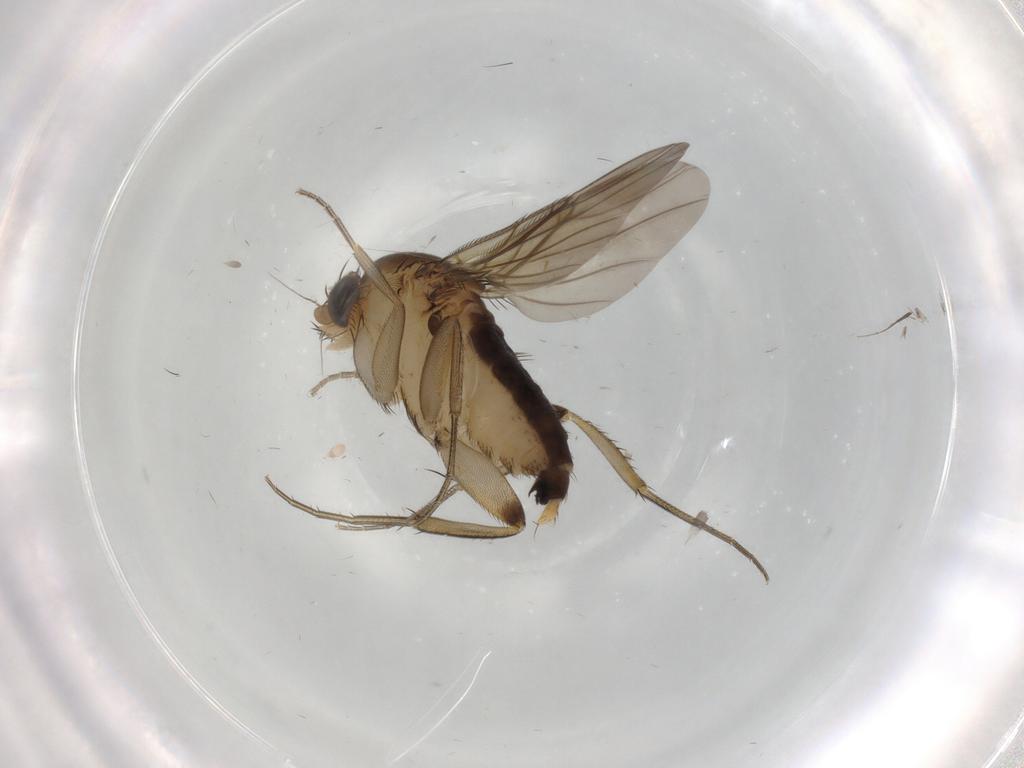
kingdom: Animalia
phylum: Arthropoda
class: Insecta
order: Diptera
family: Phoridae
